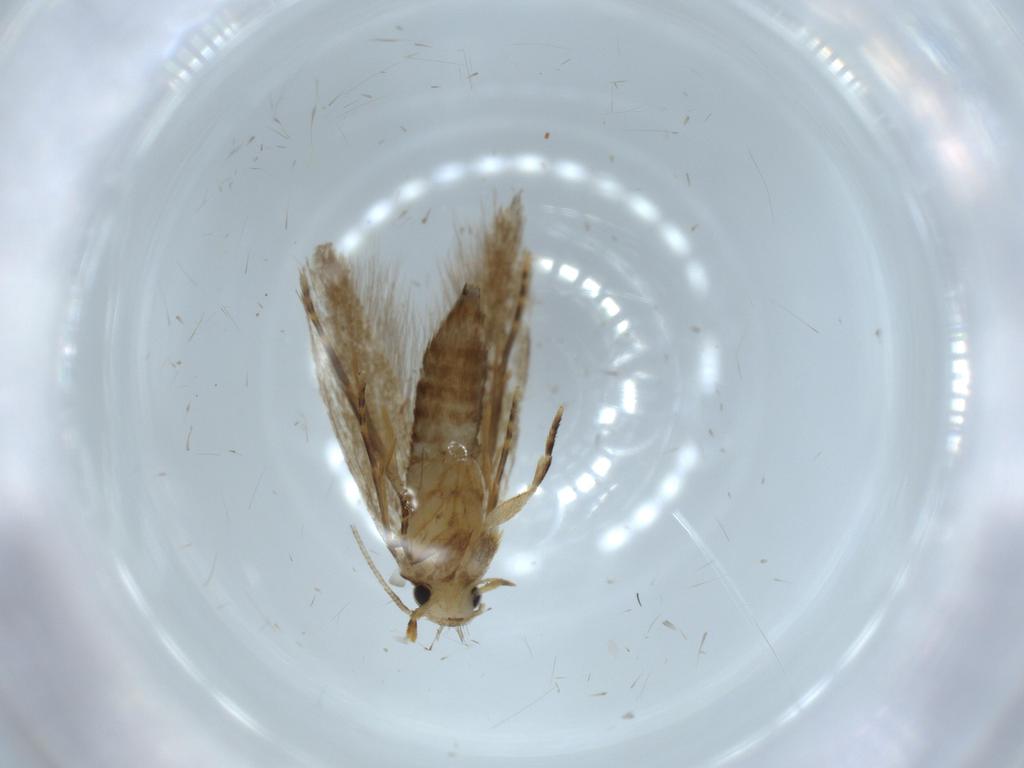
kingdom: Animalia
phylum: Arthropoda
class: Insecta
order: Lepidoptera
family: Tineidae
